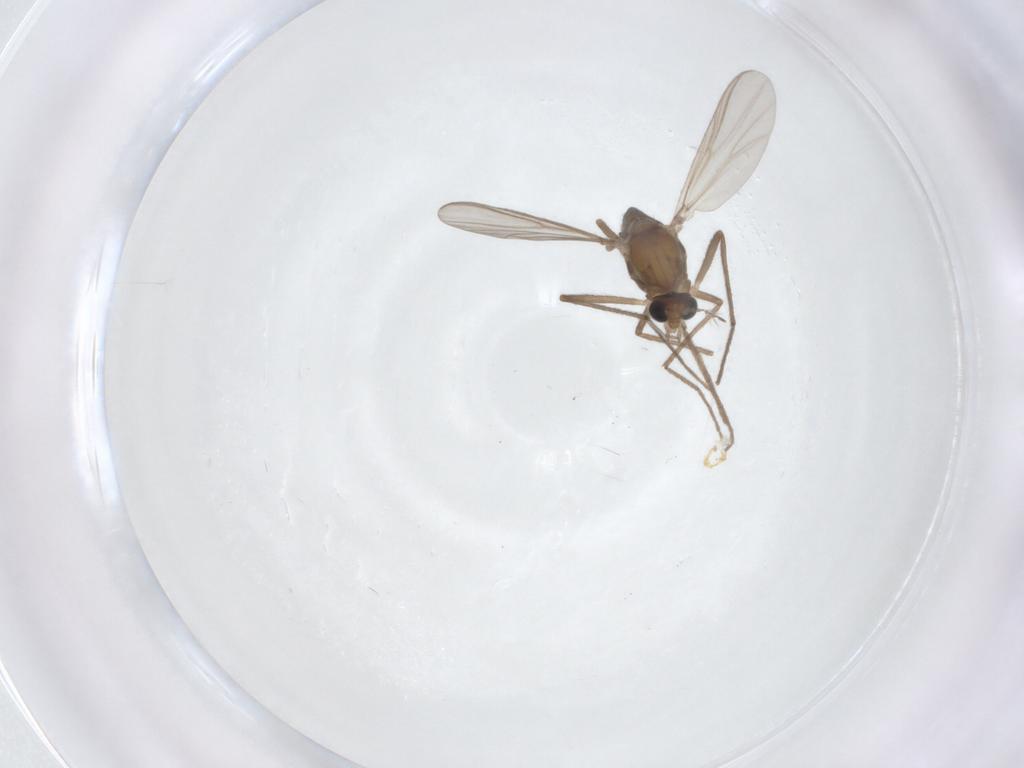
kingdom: Animalia
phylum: Arthropoda
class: Insecta
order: Diptera
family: Chironomidae
